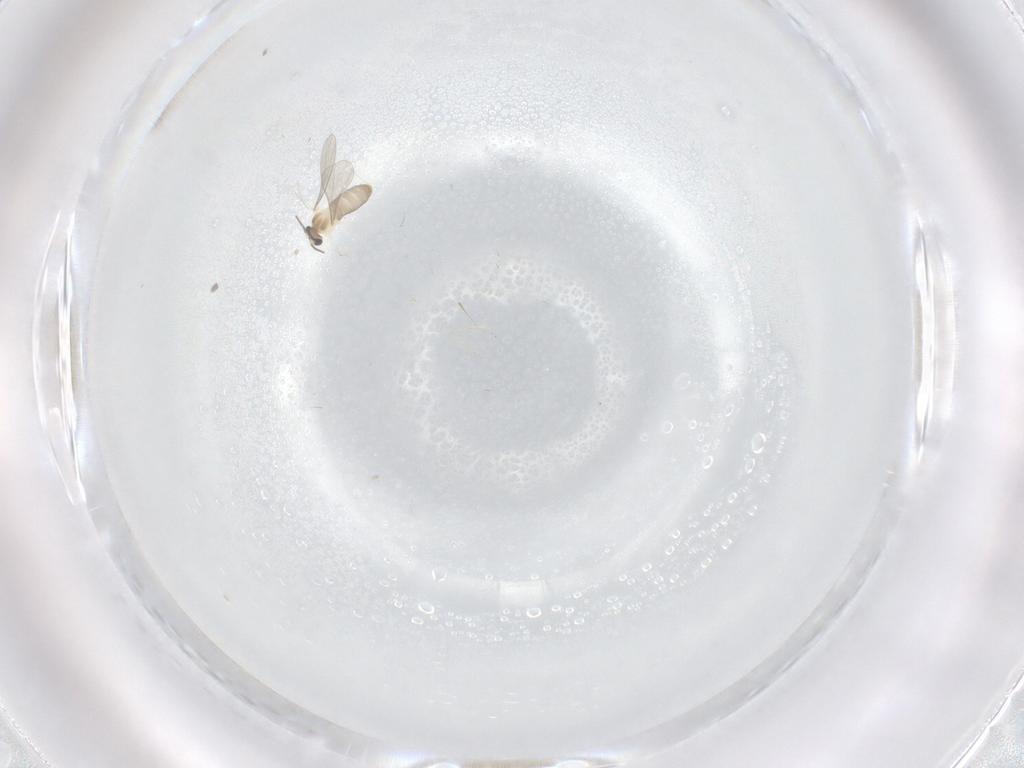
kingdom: Animalia
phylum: Arthropoda
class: Insecta
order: Diptera
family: Cecidomyiidae
